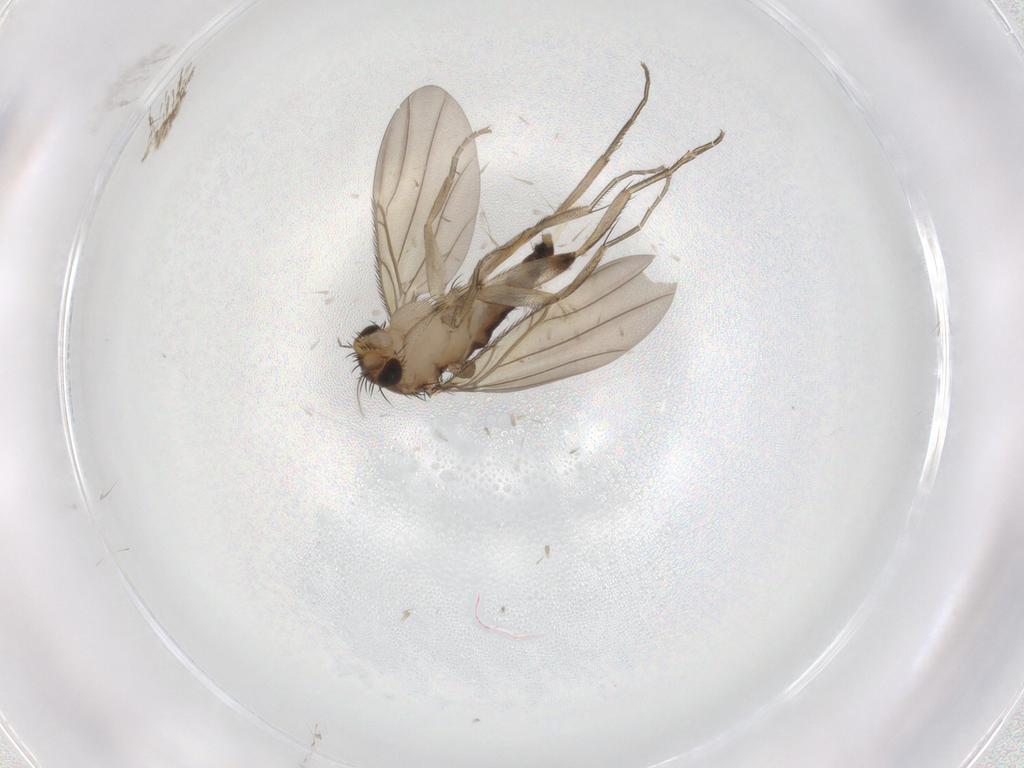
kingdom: Animalia
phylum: Arthropoda
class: Insecta
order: Diptera
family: Phoridae
